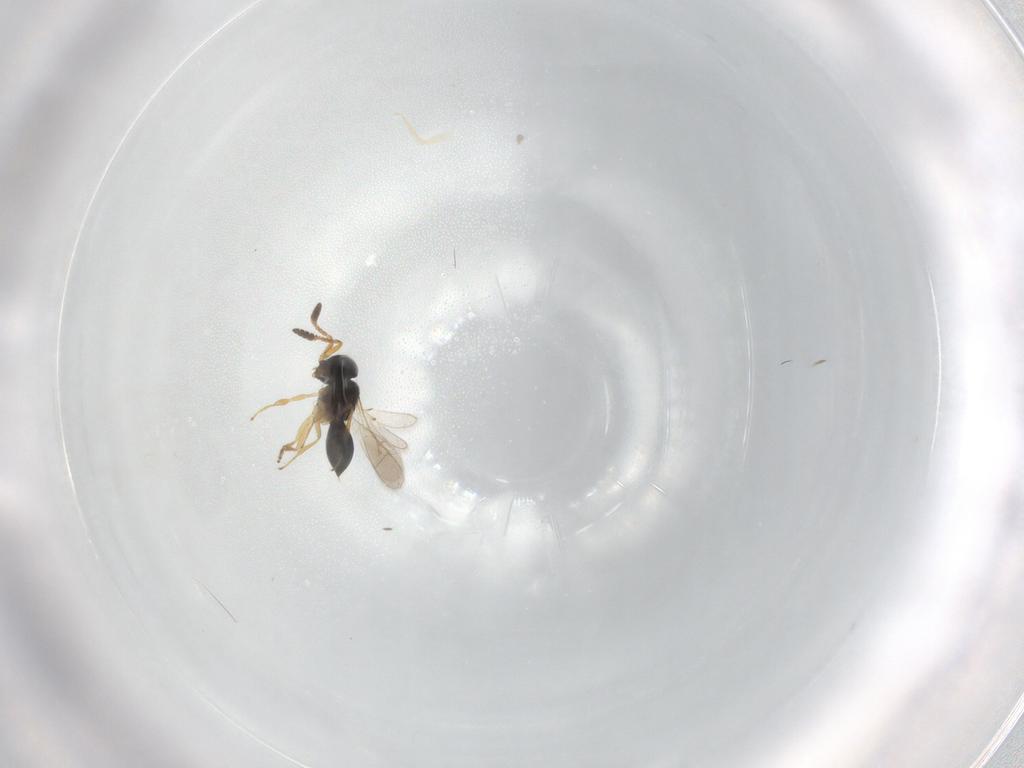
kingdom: Animalia
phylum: Arthropoda
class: Insecta
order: Hymenoptera
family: Scelionidae
